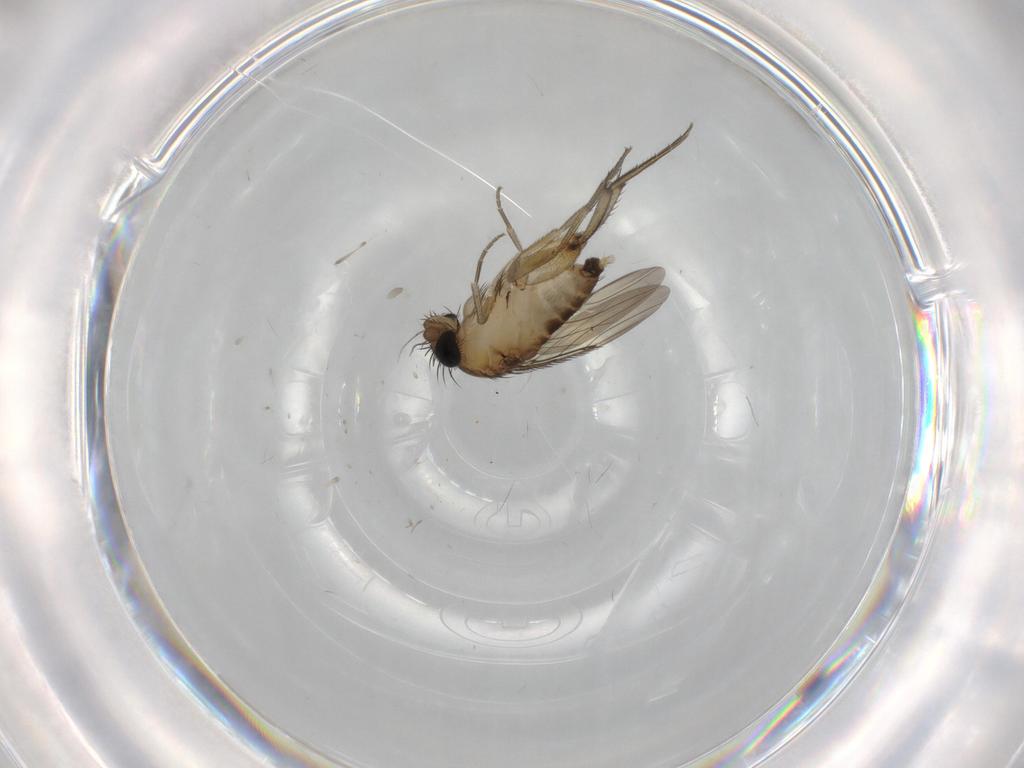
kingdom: Animalia
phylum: Arthropoda
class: Insecta
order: Diptera
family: Phoridae
